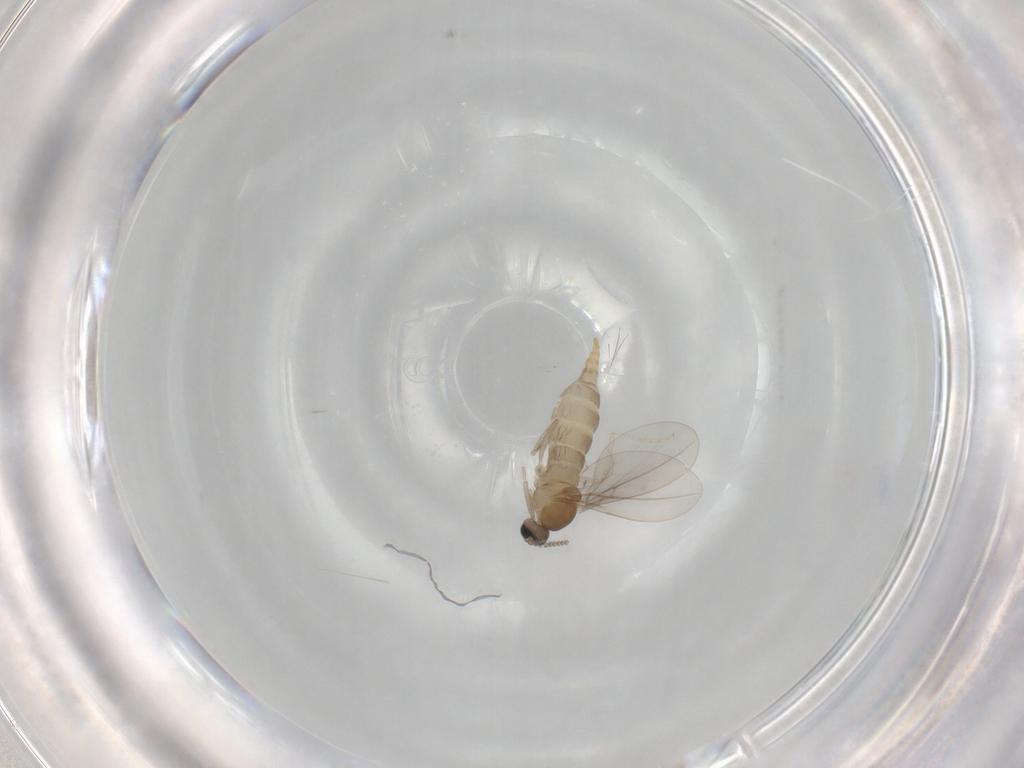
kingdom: Animalia
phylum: Arthropoda
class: Insecta
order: Diptera
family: Cecidomyiidae
